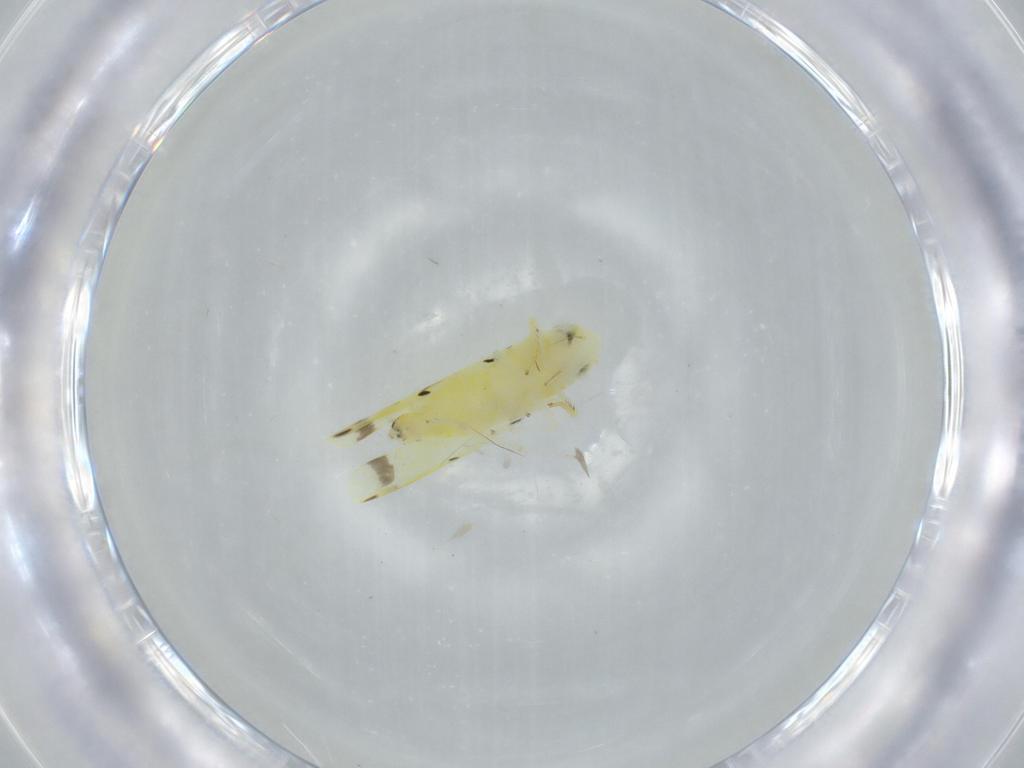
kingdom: Animalia
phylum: Arthropoda
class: Insecta
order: Hemiptera
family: Cicadellidae
